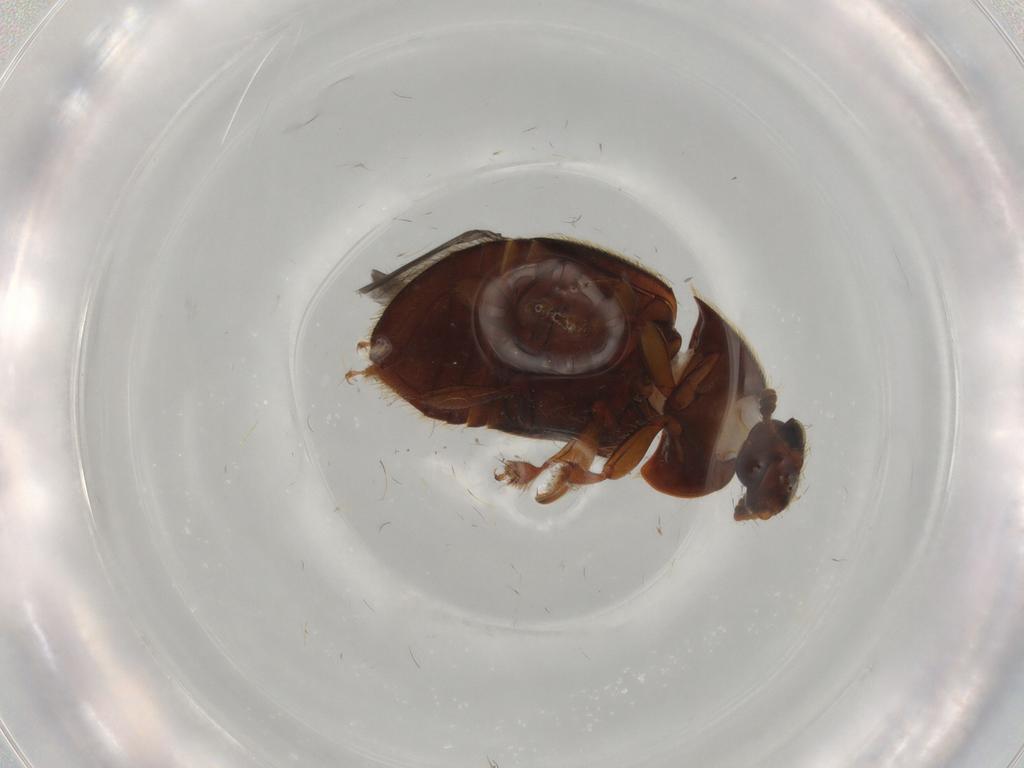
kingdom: Animalia
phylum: Arthropoda
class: Insecta
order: Coleoptera
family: Nitidulidae
